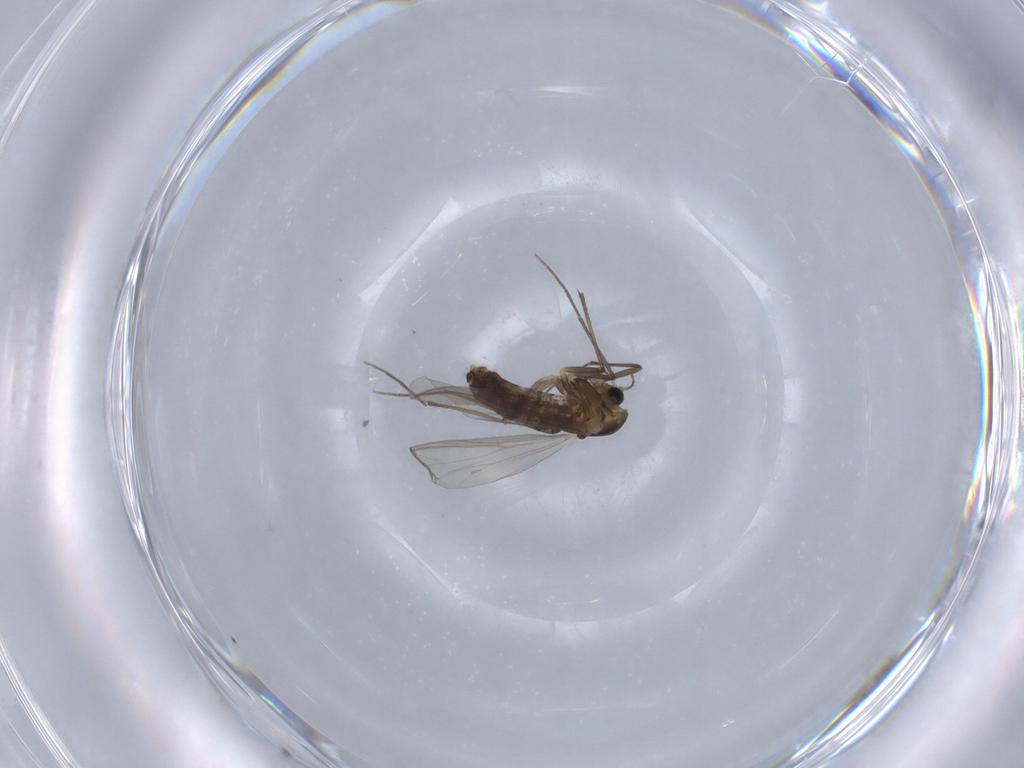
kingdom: Animalia
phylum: Arthropoda
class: Insecta
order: Diptera
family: Chironomidae
